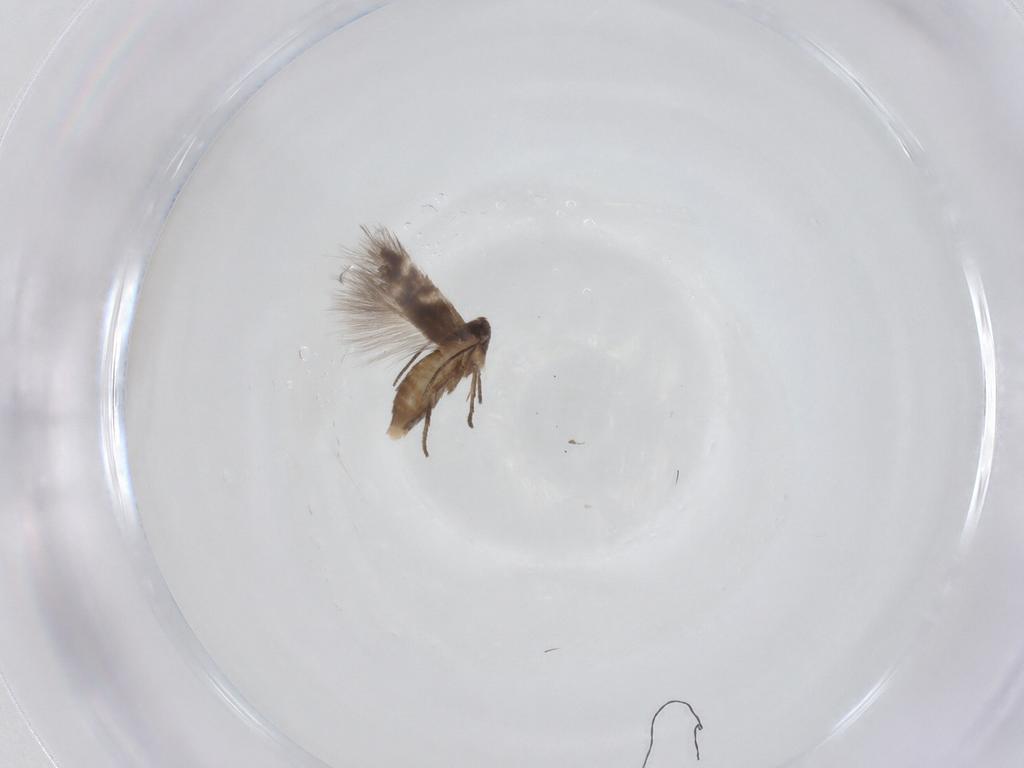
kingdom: Animalia
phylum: Arthropoda
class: Insecta
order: Lepidoptera
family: Lyonetiidae
